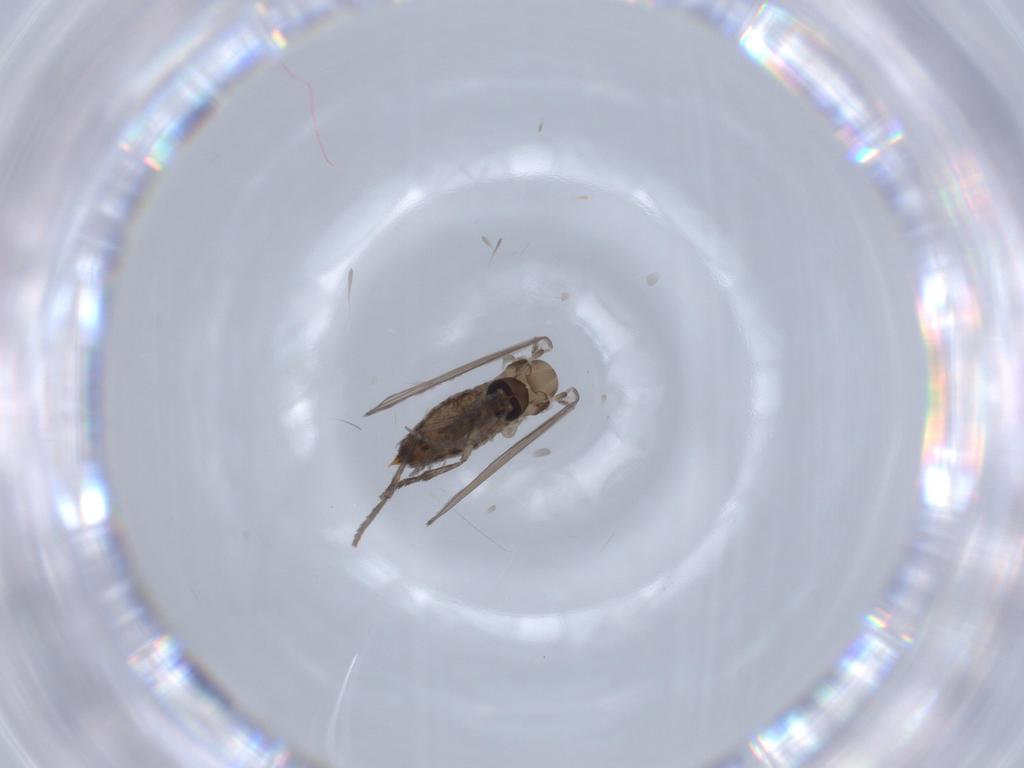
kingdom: Animalia
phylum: Arthropoda
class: Insecta
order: Diptera
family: Psychodidae
